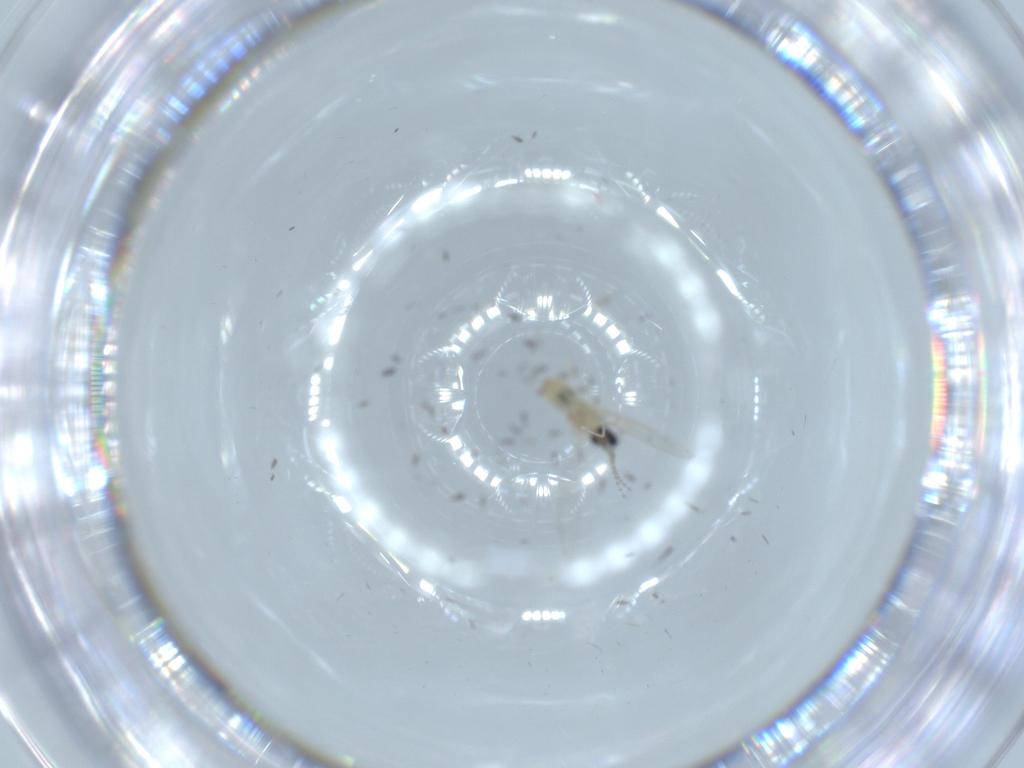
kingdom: Animalia
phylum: Arthropoda
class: Insecta
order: Diptera
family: Cecidomyiidae
